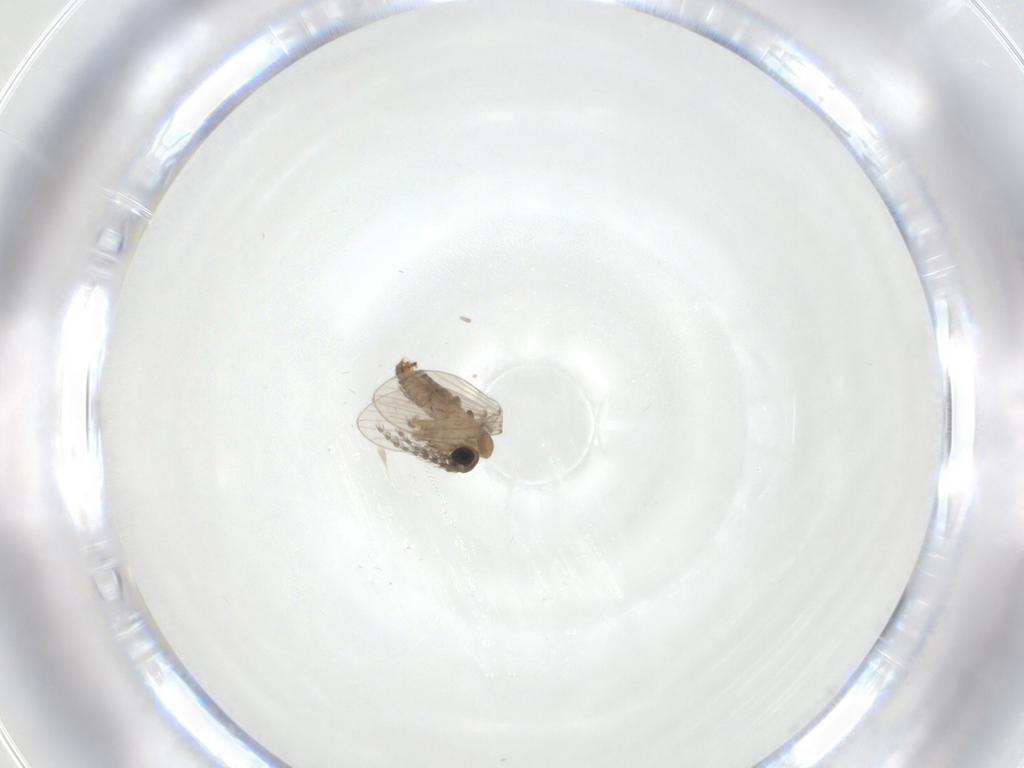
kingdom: Animalia
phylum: Arthropoda
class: Insecta
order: Diptera
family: Psychodidae
